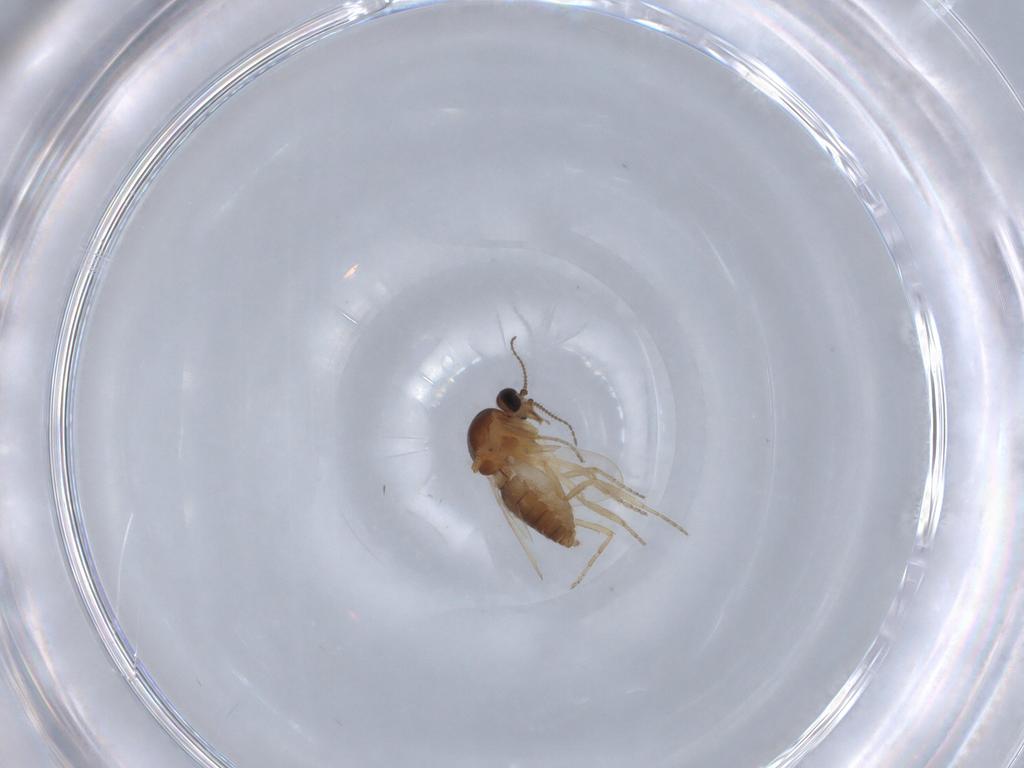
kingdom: Animalia
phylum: Arthropoda
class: Insecta
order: Diptera
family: Ceratopogonidae
